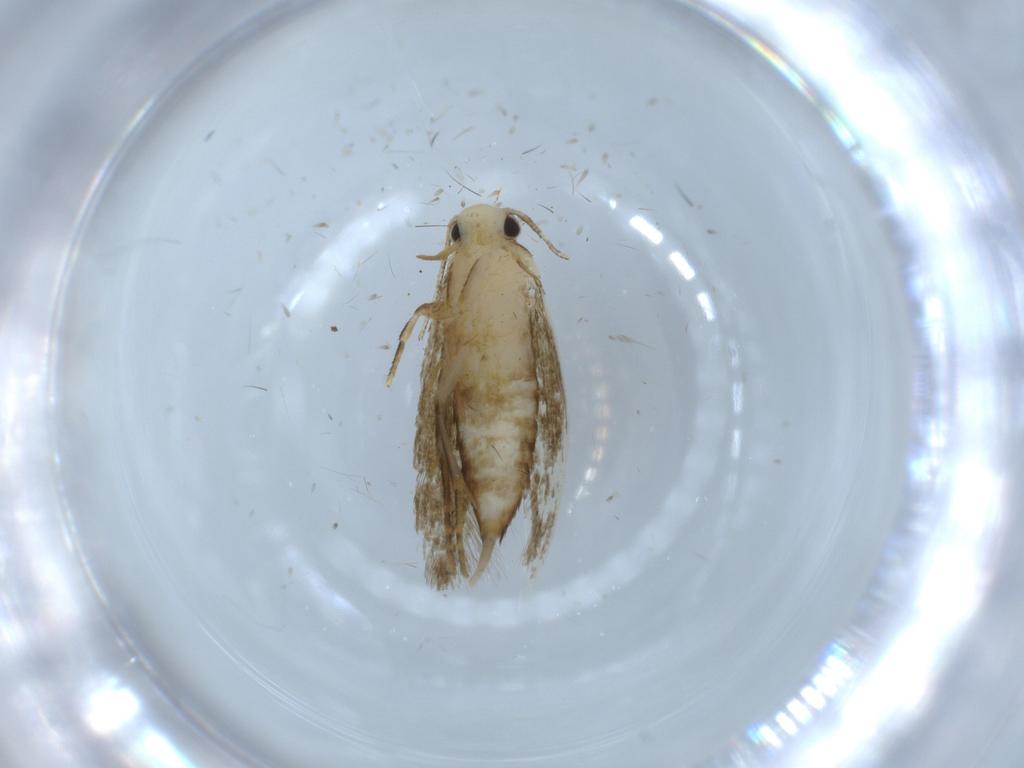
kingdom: Animalia
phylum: Arthropoda
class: Insecta
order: Lepidoptera
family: Tineidae
